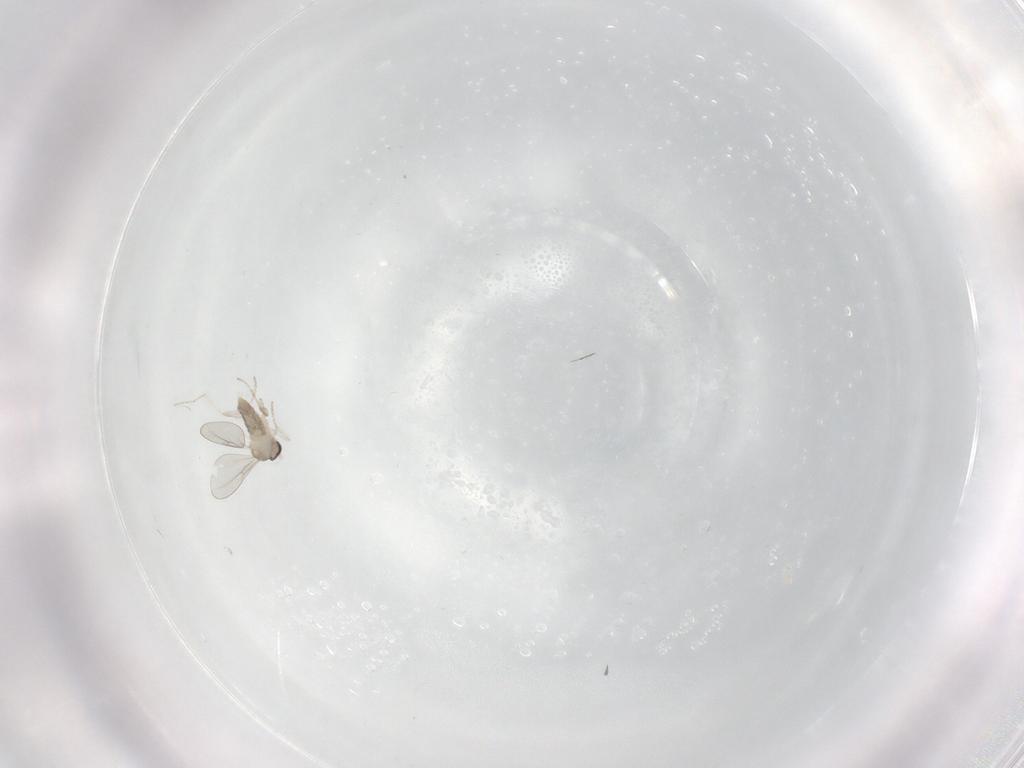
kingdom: Animalia
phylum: Arthropoda
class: Insecta
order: Diptera
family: Cecidomyiidae
